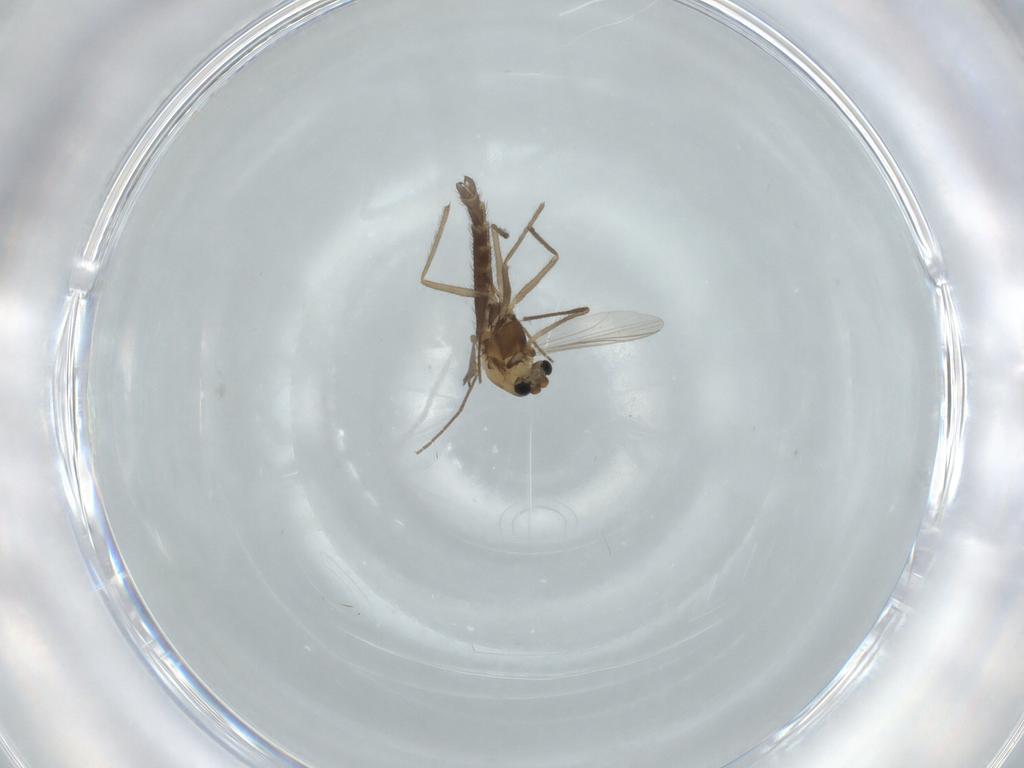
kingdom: Animalia
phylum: Arthropoda
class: Insecta
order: Diptera
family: Chironomidae
